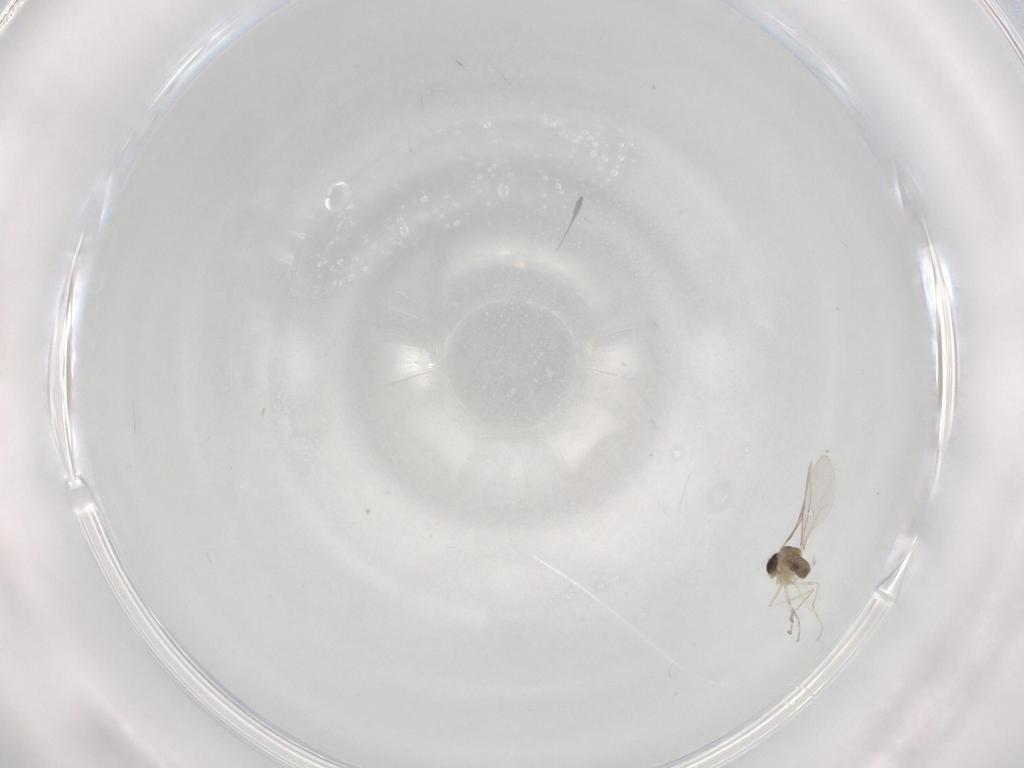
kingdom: Animalia
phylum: Arthropoda
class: Insecta
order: Diptera
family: Cecidomyiidae
